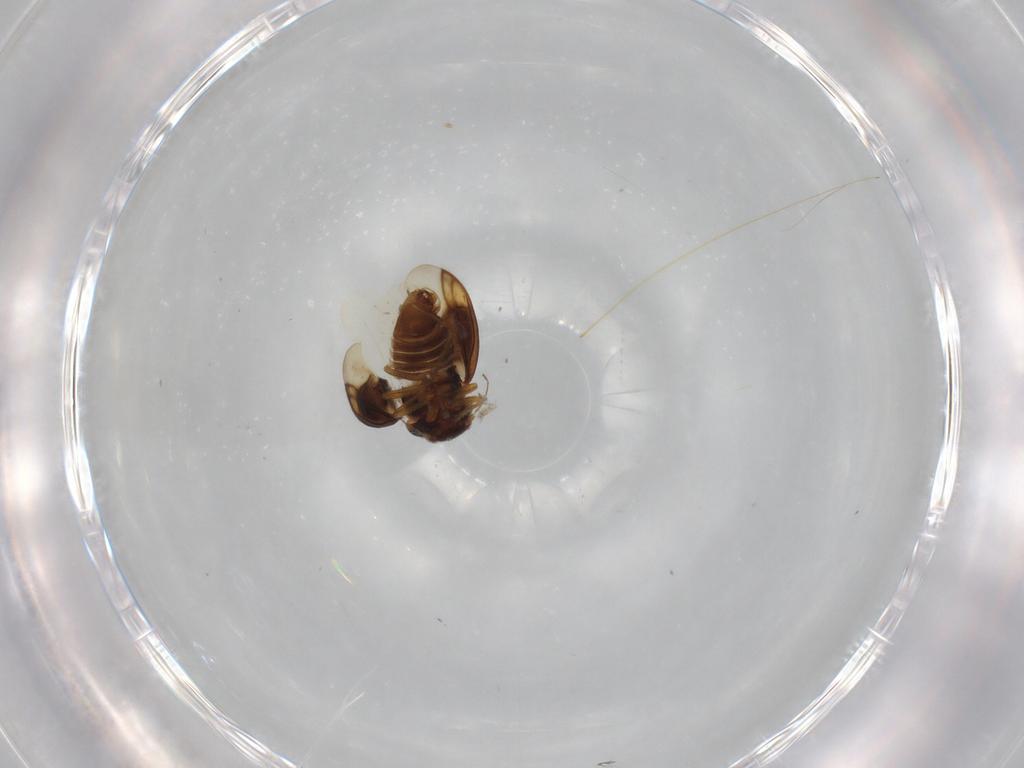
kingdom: Animalia
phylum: Arthropoda
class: Insecta
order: Hemiptera
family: Schizopteridae
